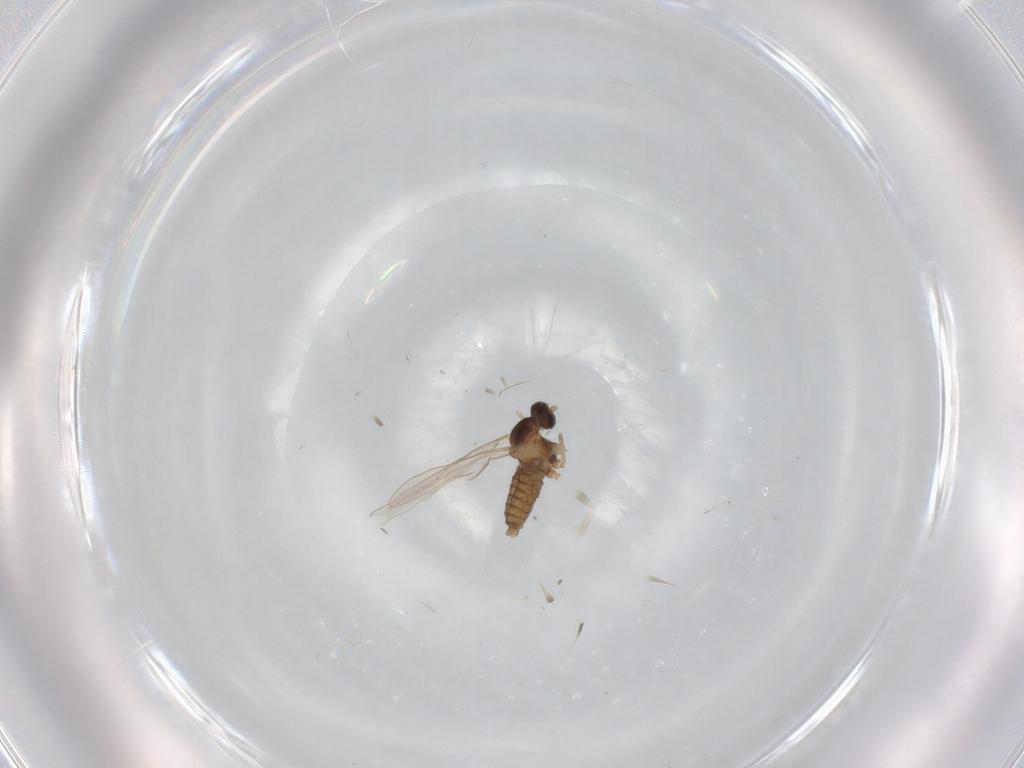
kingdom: Animalia
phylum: Arthropoda
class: Insecta
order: Diptera
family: Cecidomyiidae
